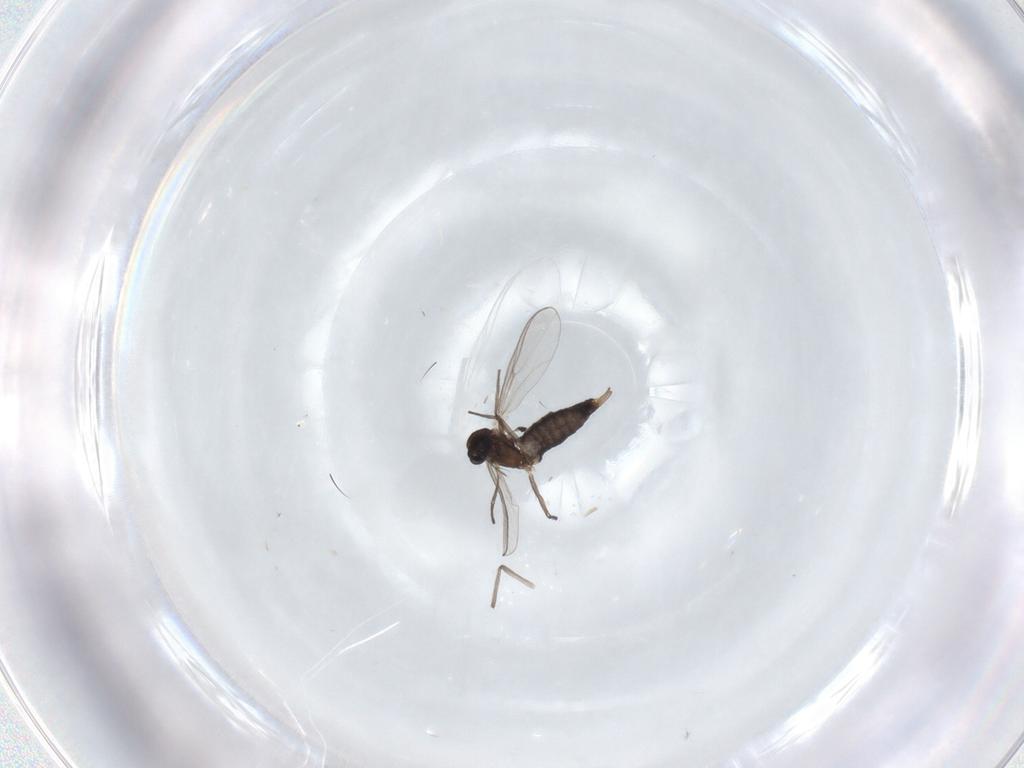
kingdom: Animalia
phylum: Arthropoda
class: Insecta
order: Diptera
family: Chironomidae
